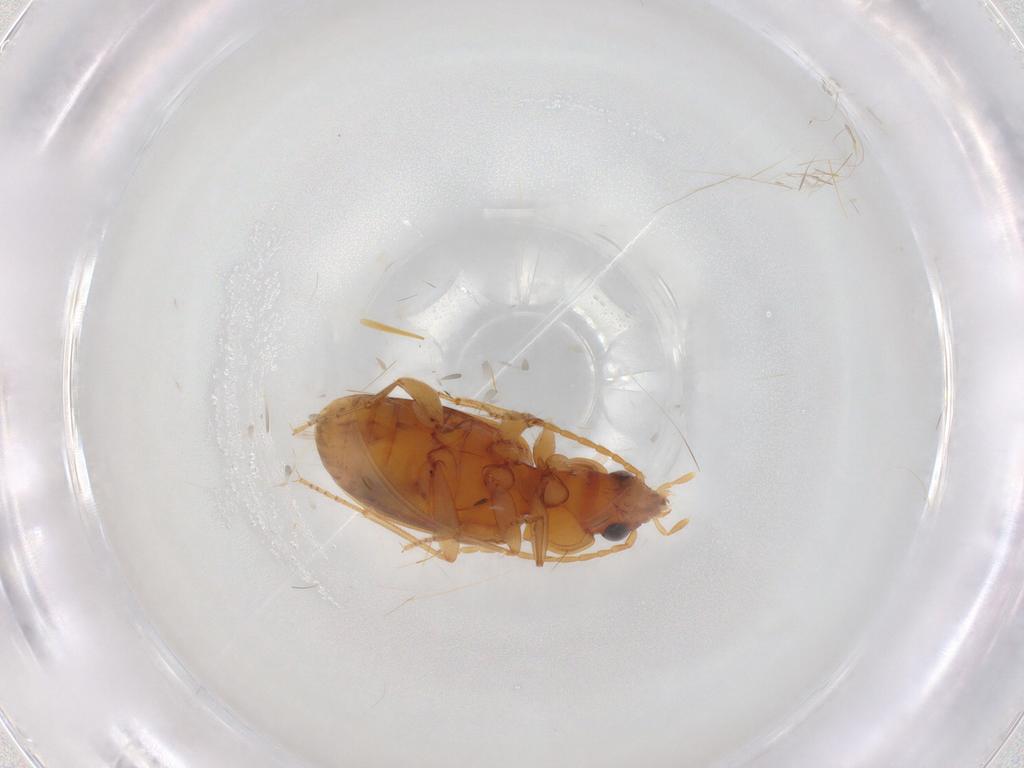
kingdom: Animalia
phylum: Arthropoda
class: Insecta
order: Coleoptera
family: Carabidae
